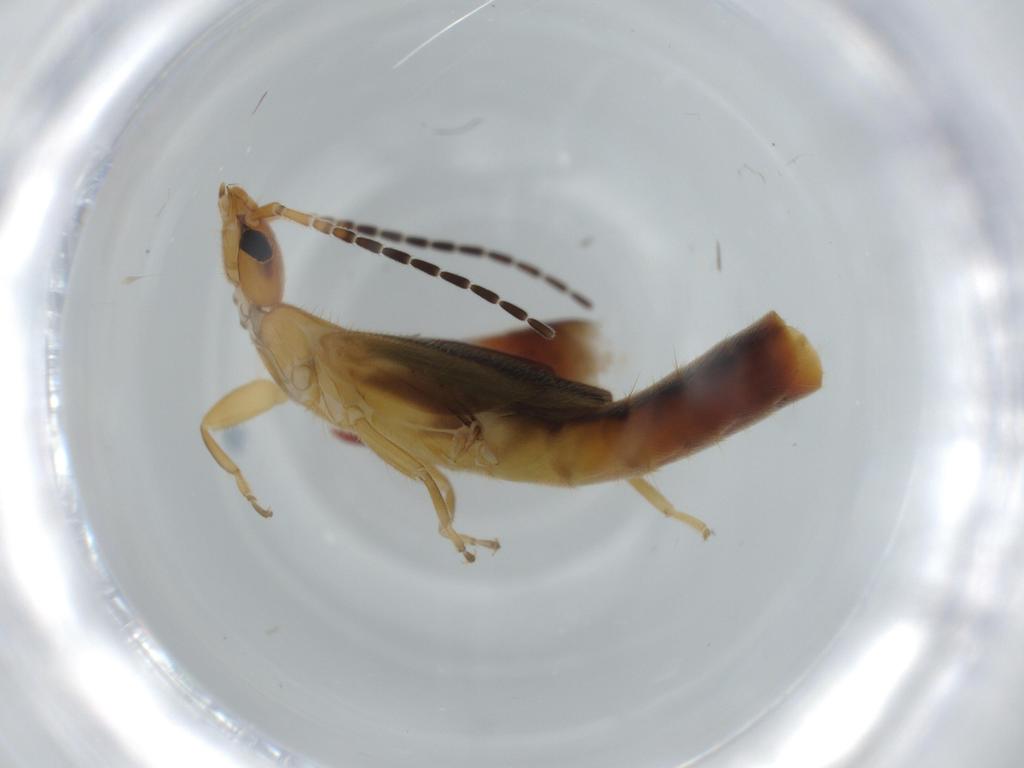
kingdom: Animalia
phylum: Arthropoda
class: Insecta
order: Dermaptera
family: Forficulidae
